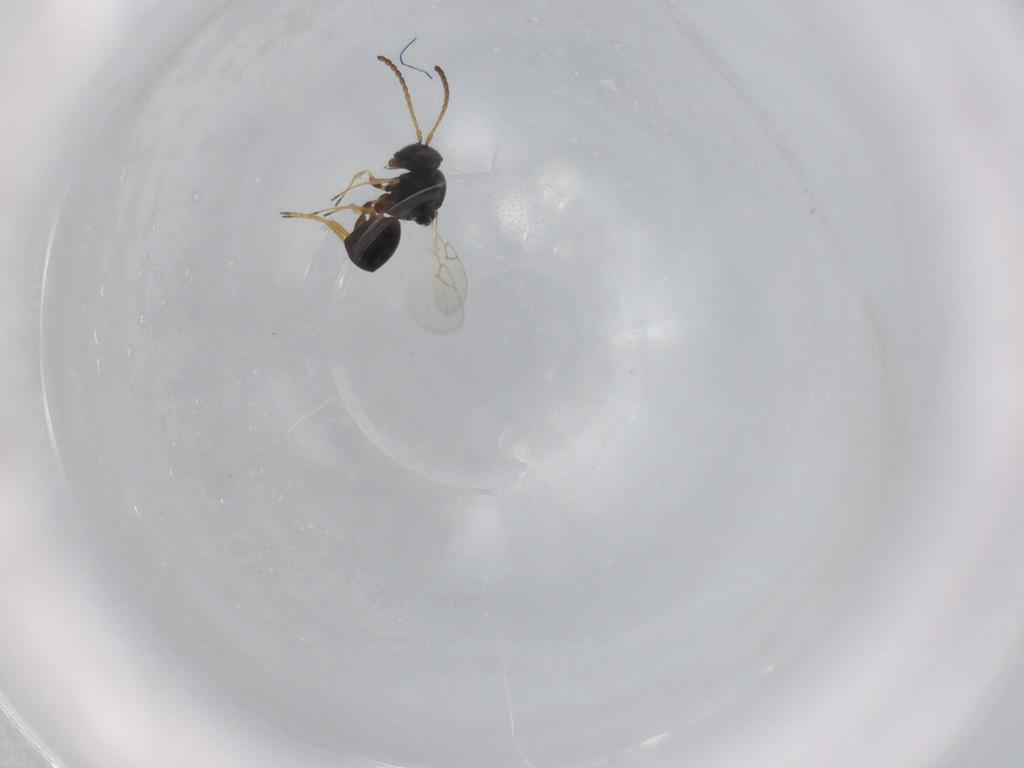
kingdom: Animalia
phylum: Arthropoda
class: Insecta
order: Hymenoptera
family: Figitidae
